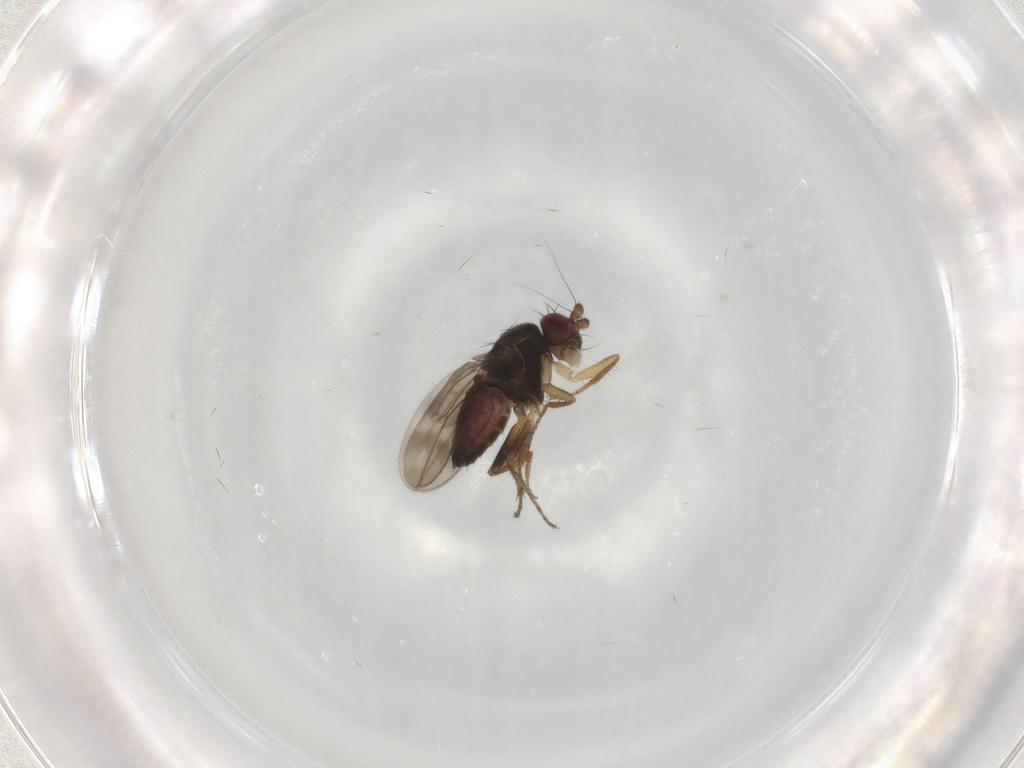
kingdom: Animalia
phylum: Arthropoda
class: Insecta
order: Diptera
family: Sphaeroceridae
